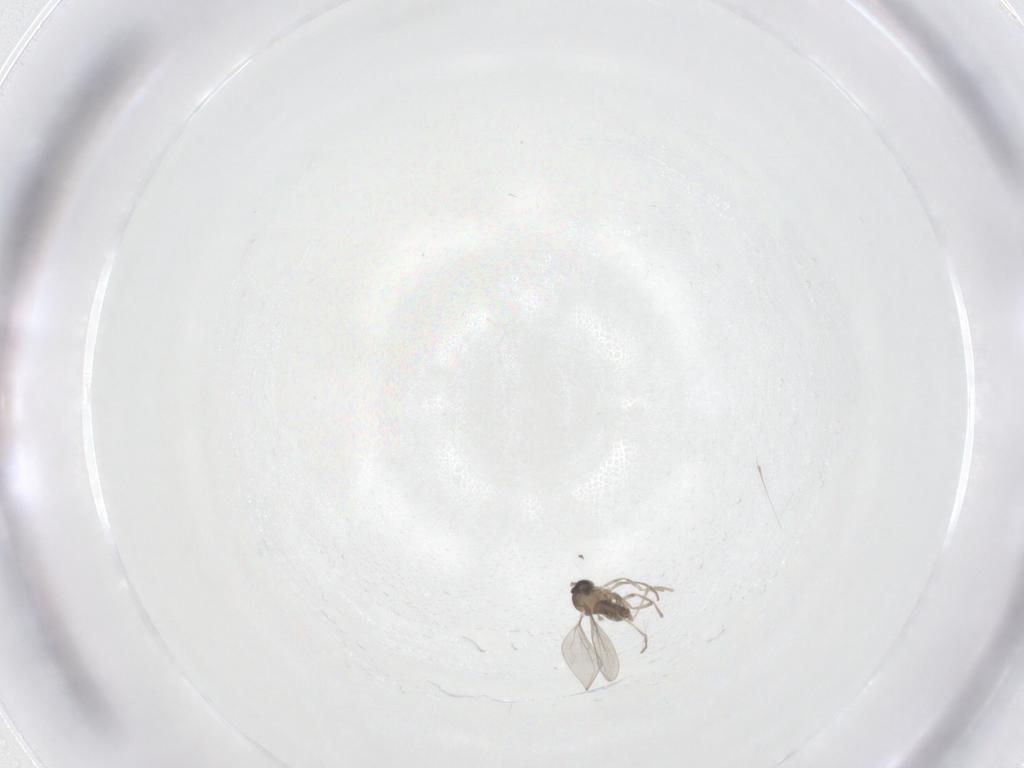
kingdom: Animalia
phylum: Arthropoda
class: Insecta
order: Diptera
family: Cecidomyiidae
